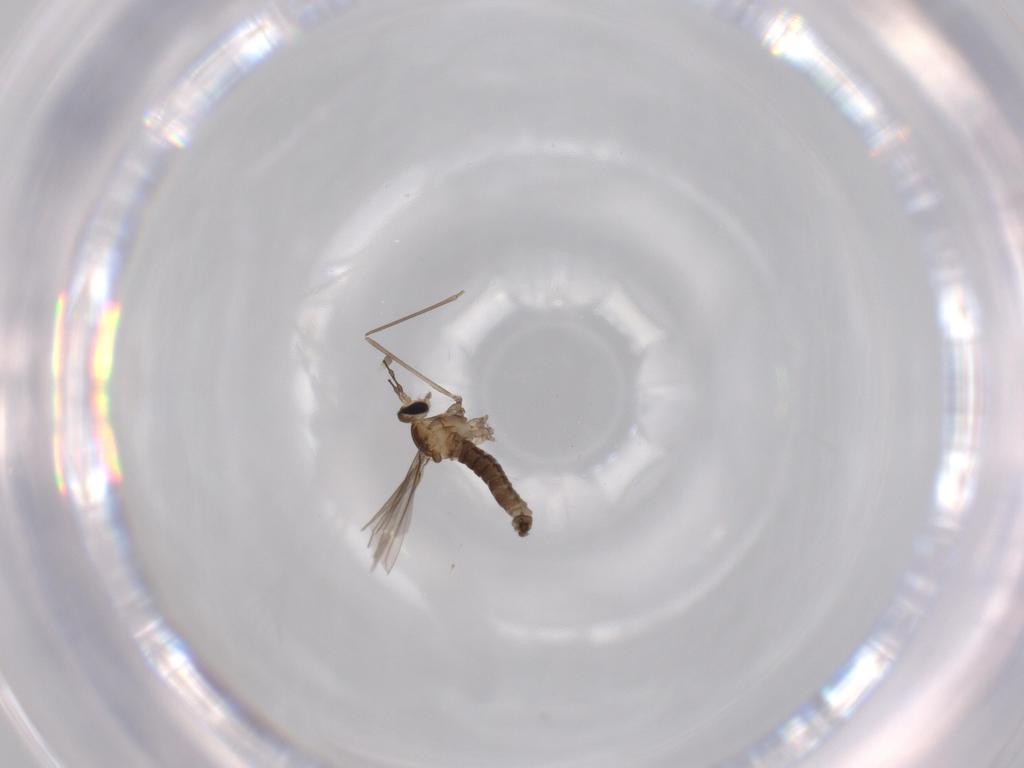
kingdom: Animalia
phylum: Arthropoda
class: Insecta
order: Diptera
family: Cecidomyiidae
